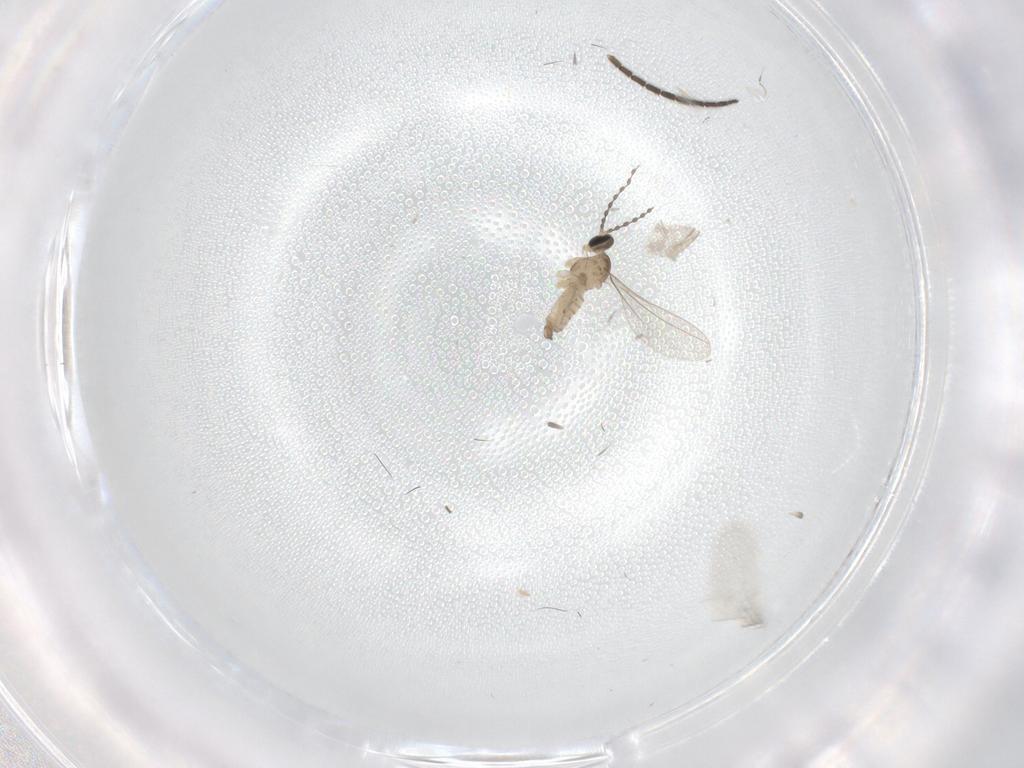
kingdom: Animalia
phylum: Arthropoda
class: Insecta
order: Diptera
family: Cecidomyiidae
